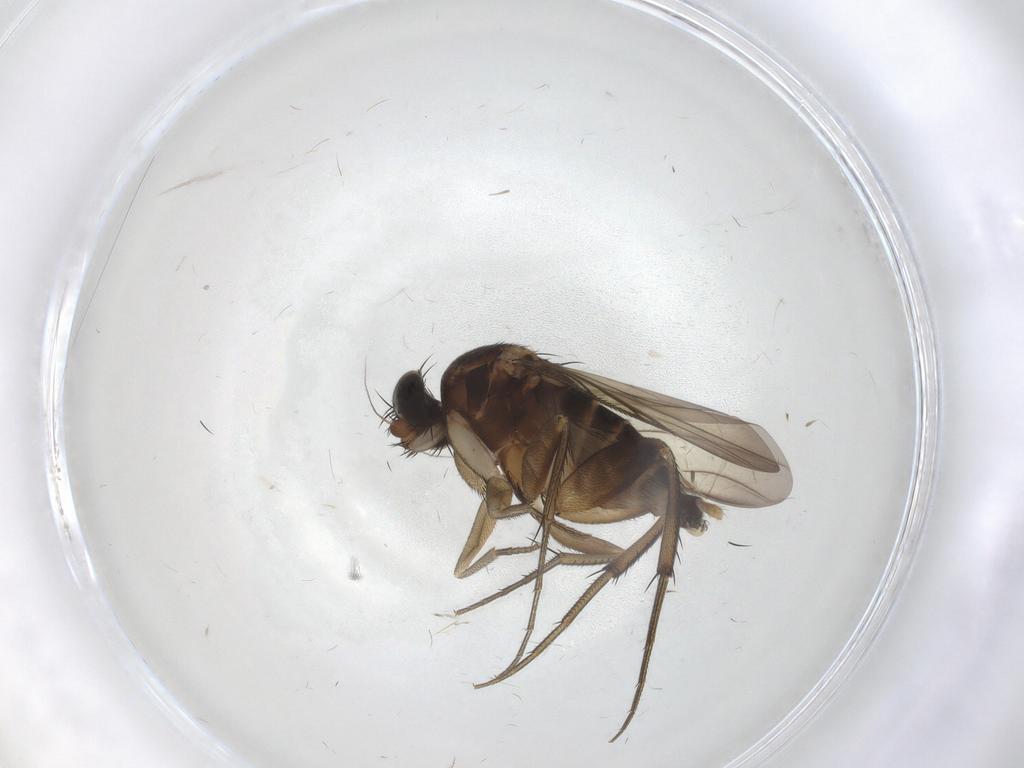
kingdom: Animalia
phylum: Arthropoda
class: Insecta
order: Diptera
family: Phoridae
